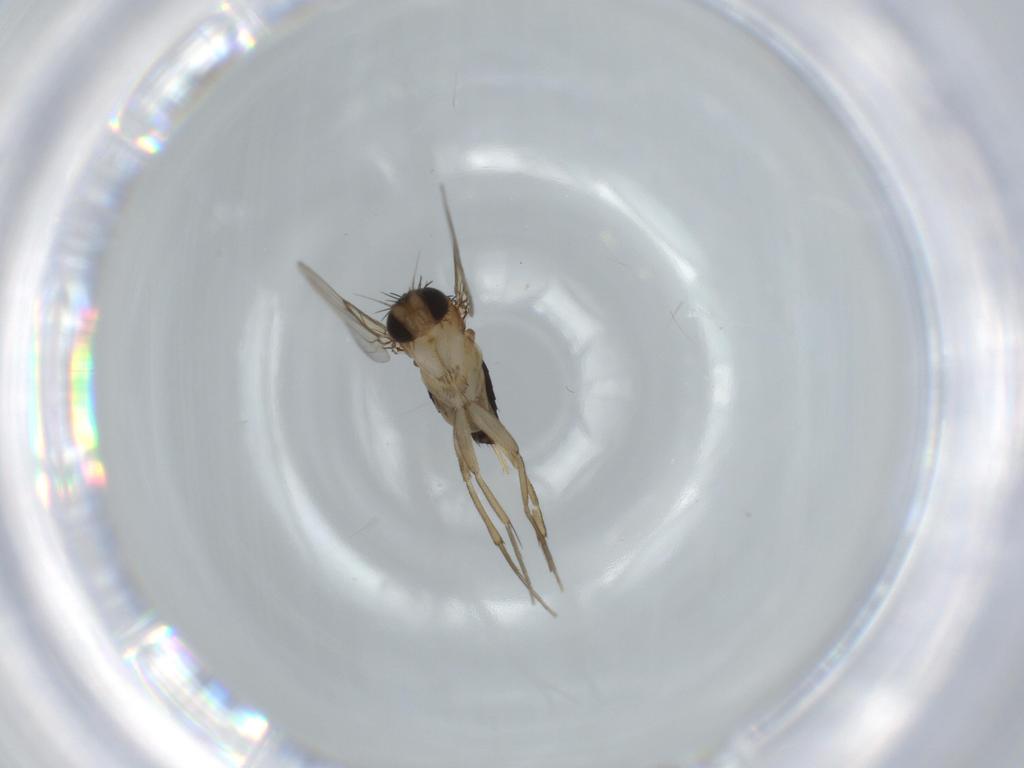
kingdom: Animalia
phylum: Arthropoda
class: Insecta
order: Diptera
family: Phoridae
